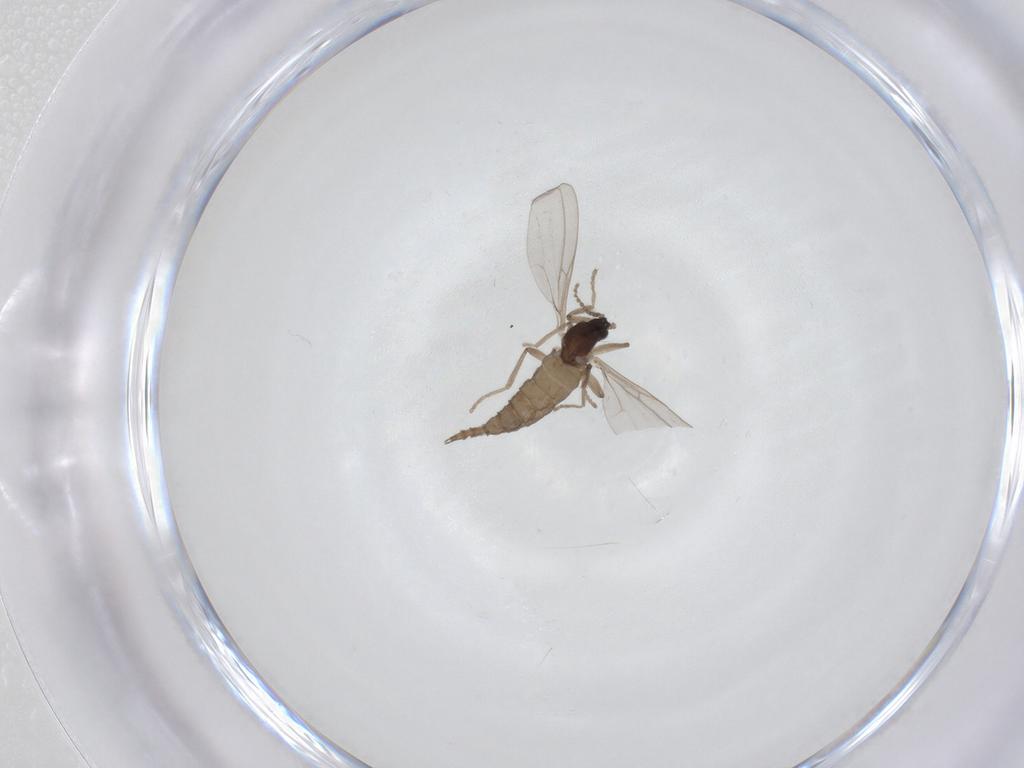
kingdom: Animalia
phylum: Arthropoda
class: Insecta
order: Diptera
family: Cecidomyiidae
